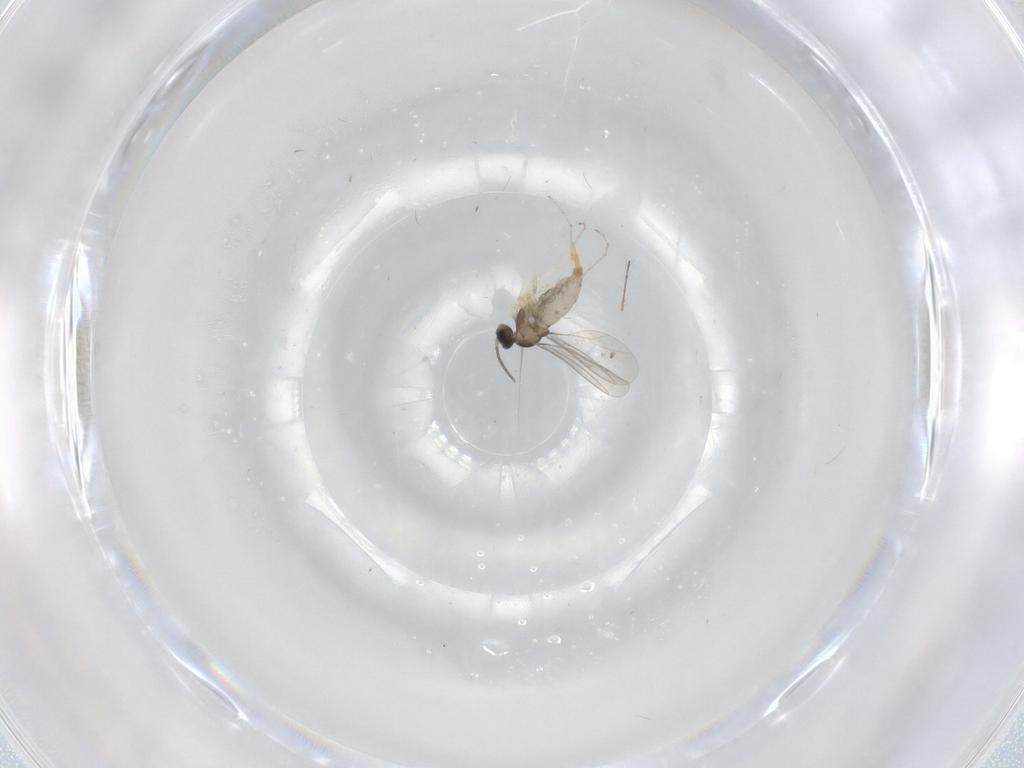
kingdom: Animalia
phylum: Arthropoda
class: Insecta
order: Diptera
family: Cecidomyiidae
